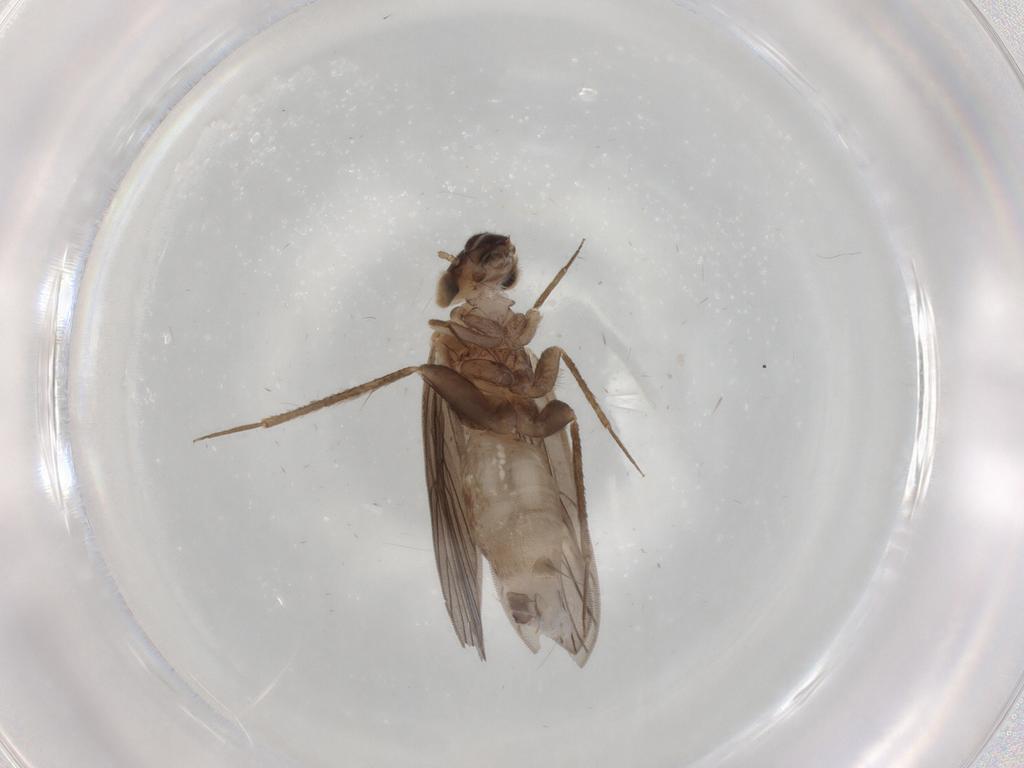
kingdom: Animalia
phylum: Arthropoda
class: Insecta
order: Psocodea
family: Lepidopsocidae
